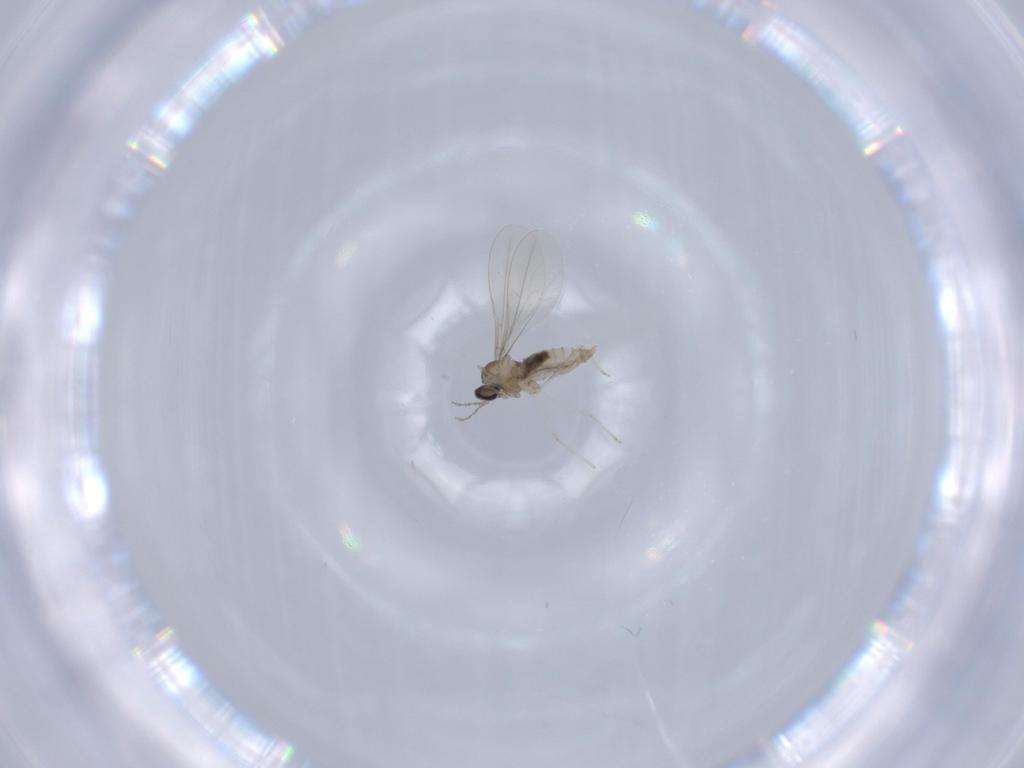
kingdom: Animalia
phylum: Arthropoda
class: Insecta
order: Diptera
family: Cecidomyiidae
